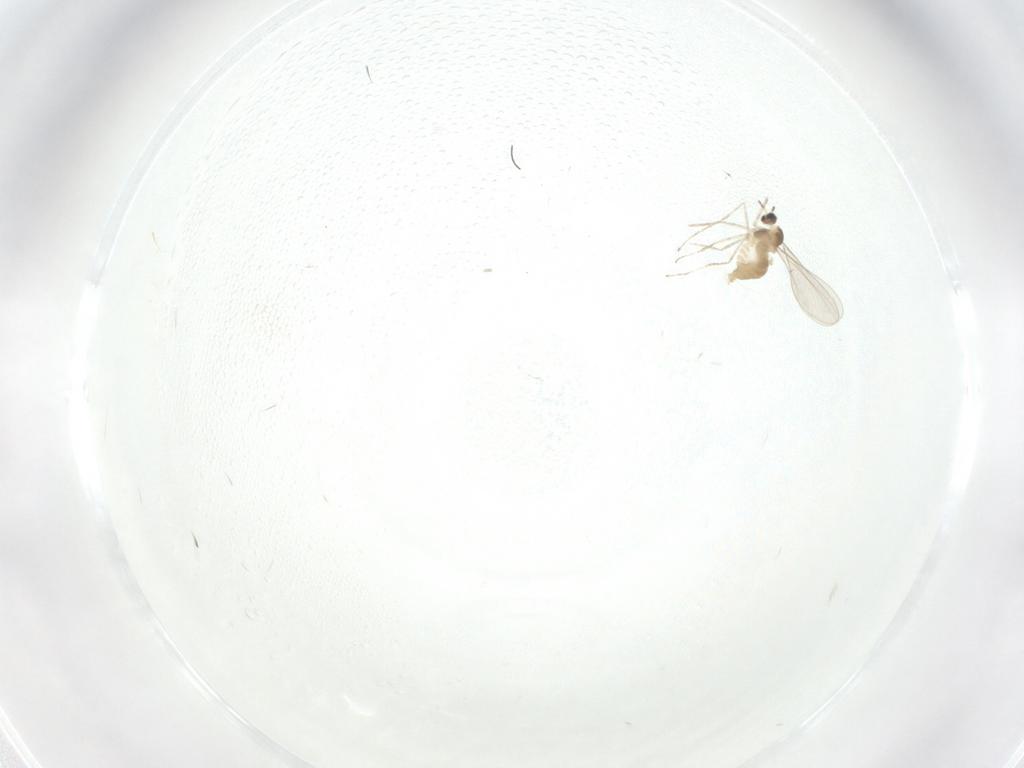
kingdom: Animalia
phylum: Arthropoda
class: Insecta
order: Diptera
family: Cecidomyiidae
